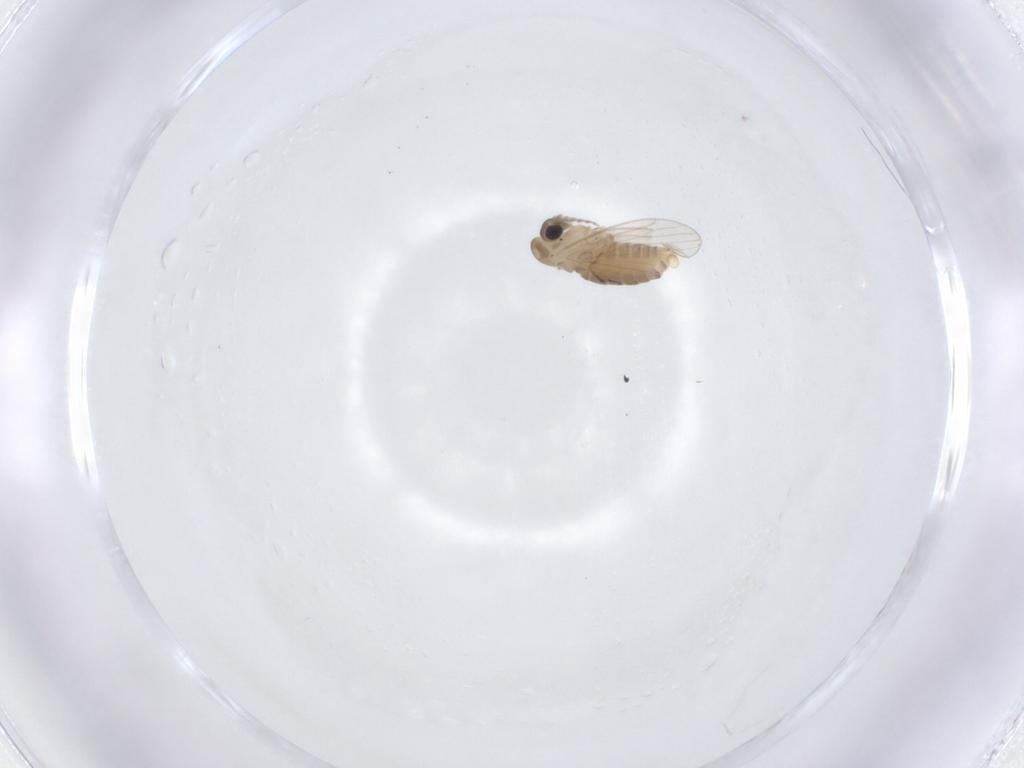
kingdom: Animalia
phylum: Arthropoda
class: Insecta
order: Diptera
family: Psychodidae
